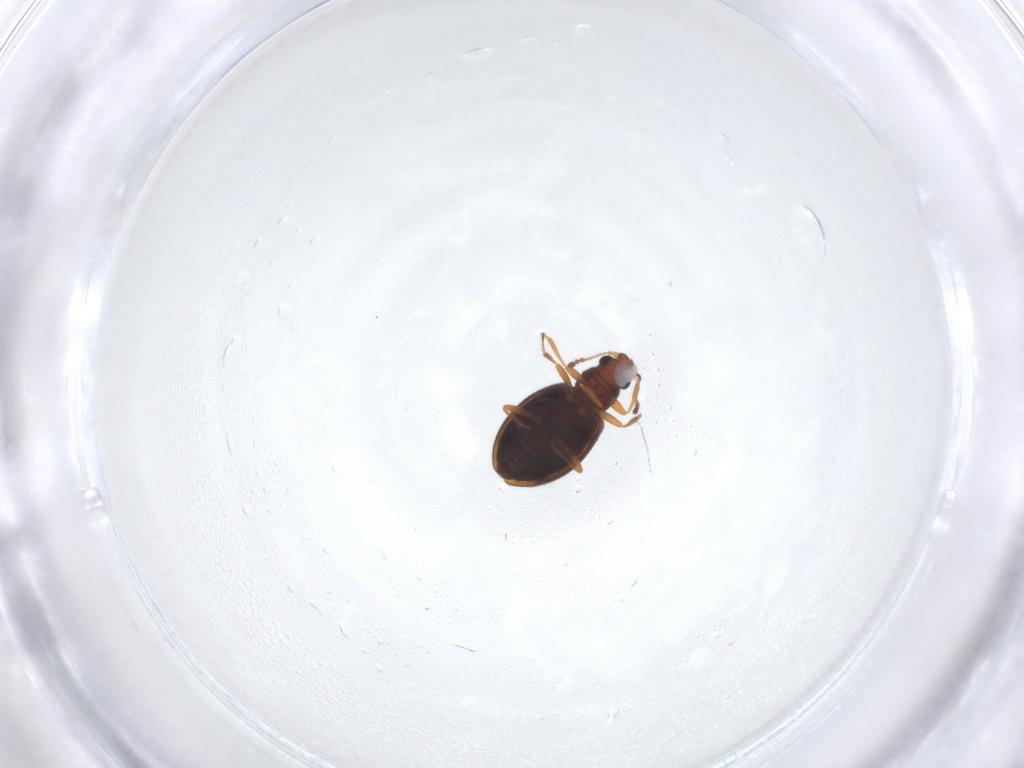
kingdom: Animalia
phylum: Arthropoda
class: Insecta
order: Coleoptera
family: Latridiidae
